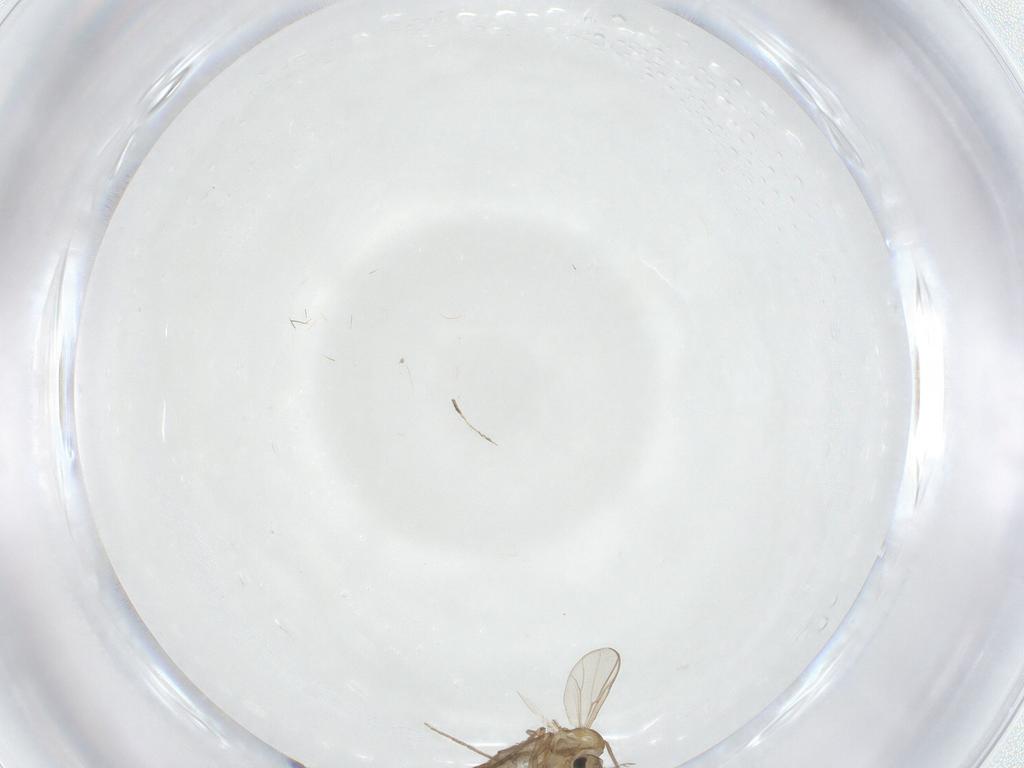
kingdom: Animalia
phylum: Arthropoda
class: Insecta
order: Diptera
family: Chironomidae
